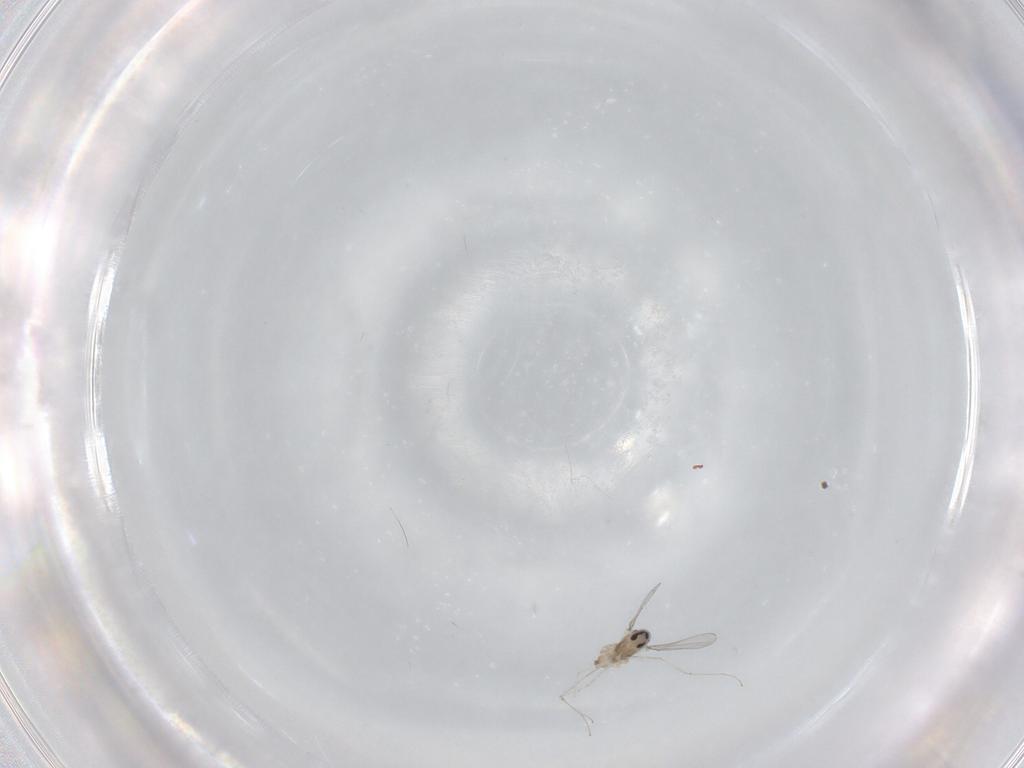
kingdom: Animalia
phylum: Arthropoda
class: Insecta
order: Diptera
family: Cecidomyiidae
